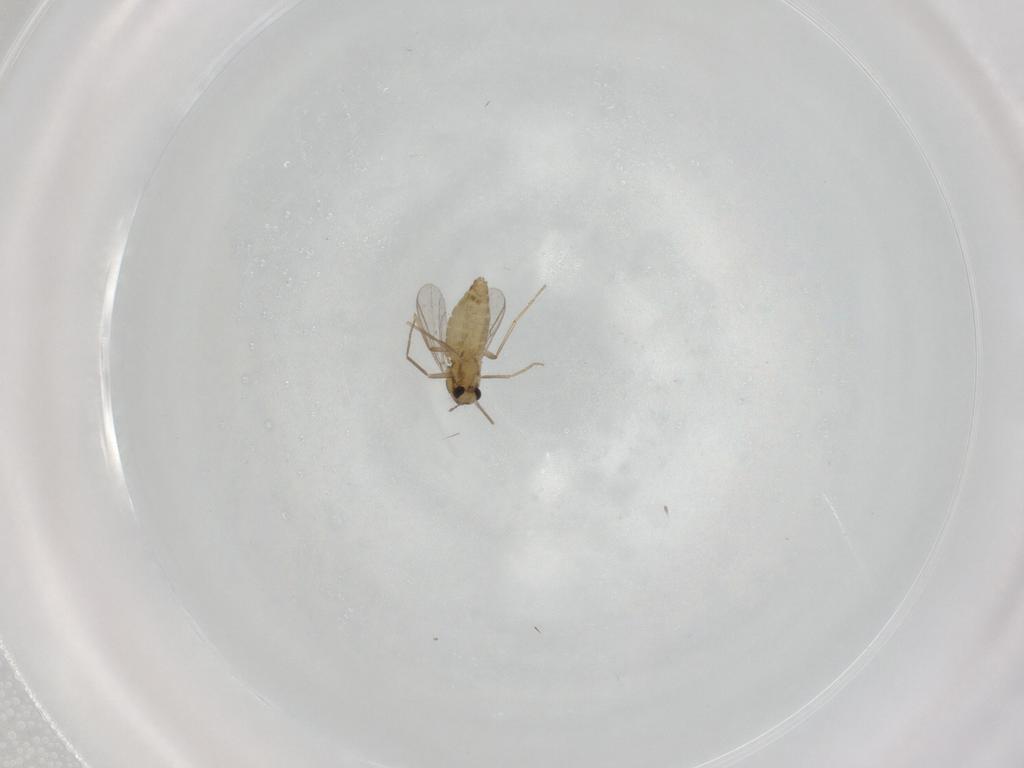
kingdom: Animalia
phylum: Arthropoda
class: Insecta
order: Diptera
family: Chironomidae
